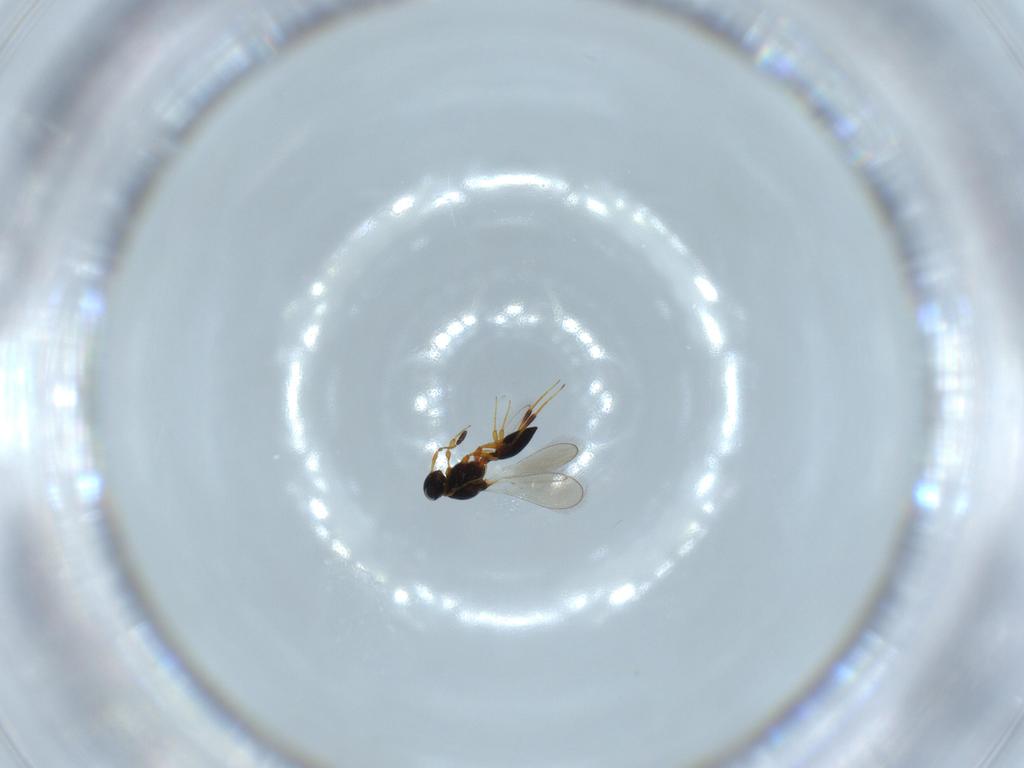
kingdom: Animalia
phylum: Arthropoda
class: Insecta
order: Hymenoptera
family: Platygastridae
